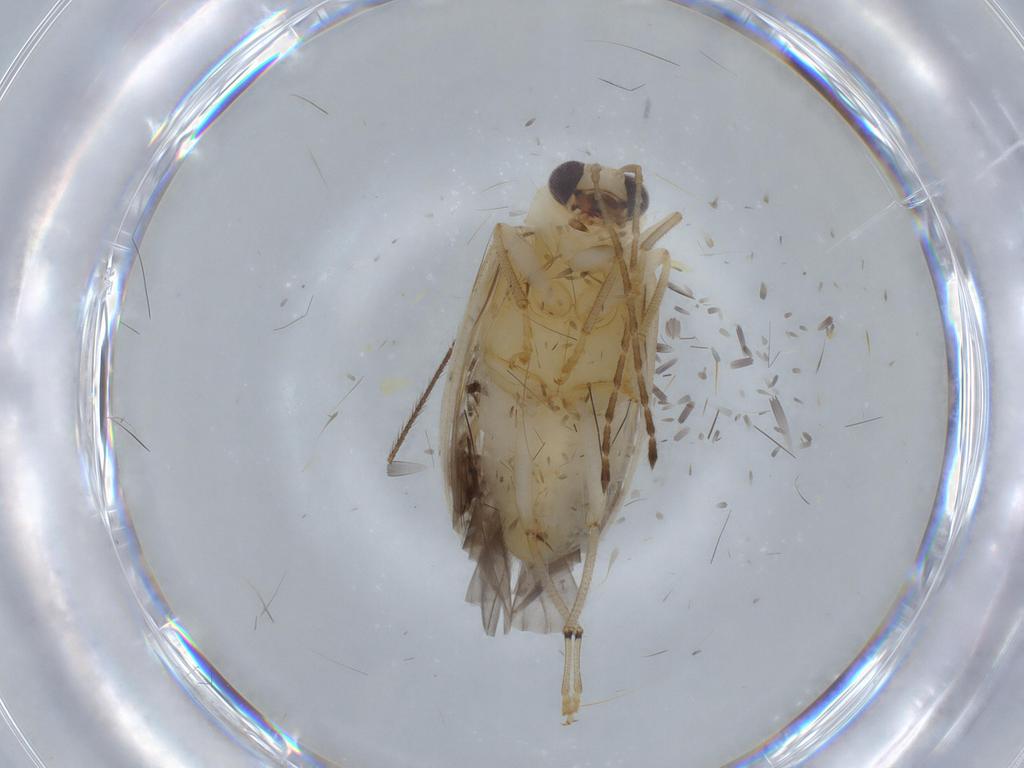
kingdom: Animalia
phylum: Arthropoda
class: Insecta
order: Coleoptera
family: Chrysomelidae
